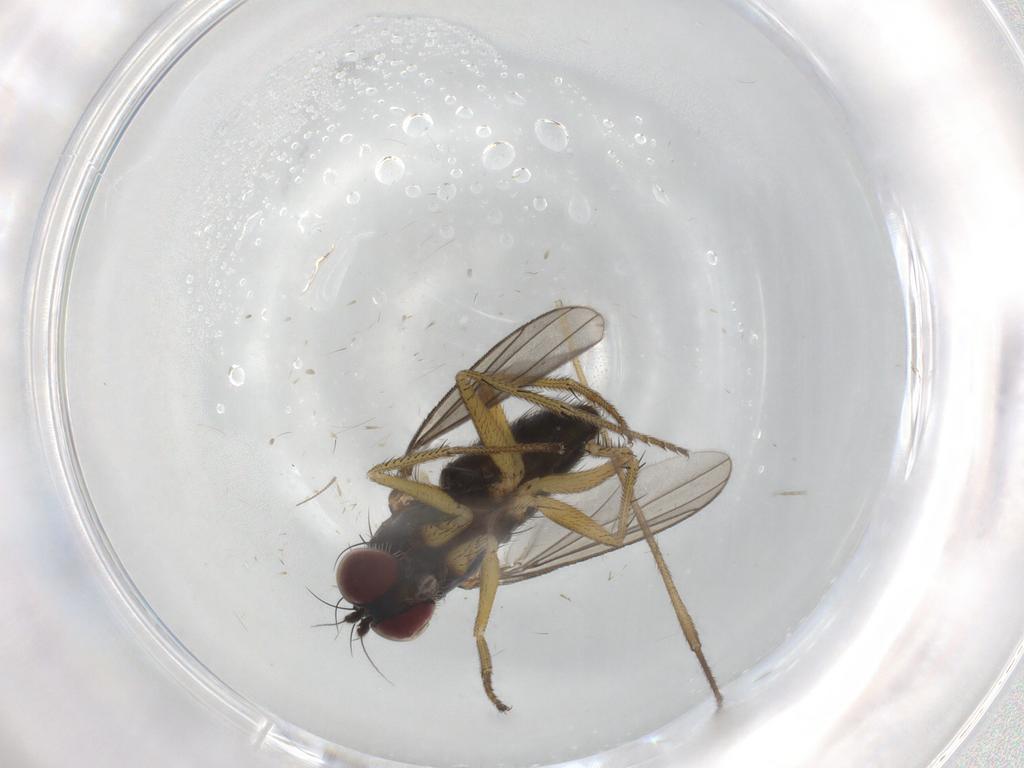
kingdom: Animalia
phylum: Arthropoda
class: Insecta
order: Diptera
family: Dolichopodidae
